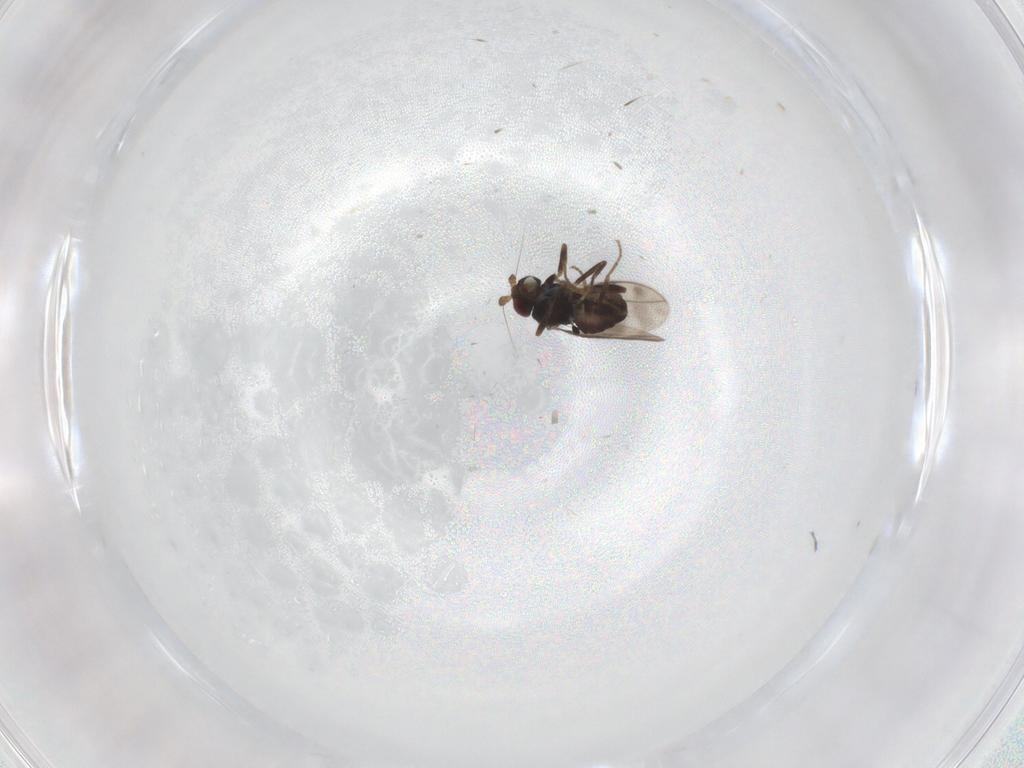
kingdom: Animalia
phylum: Arthropoda
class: Insecta
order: Diptera
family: Sphaeroceridae
